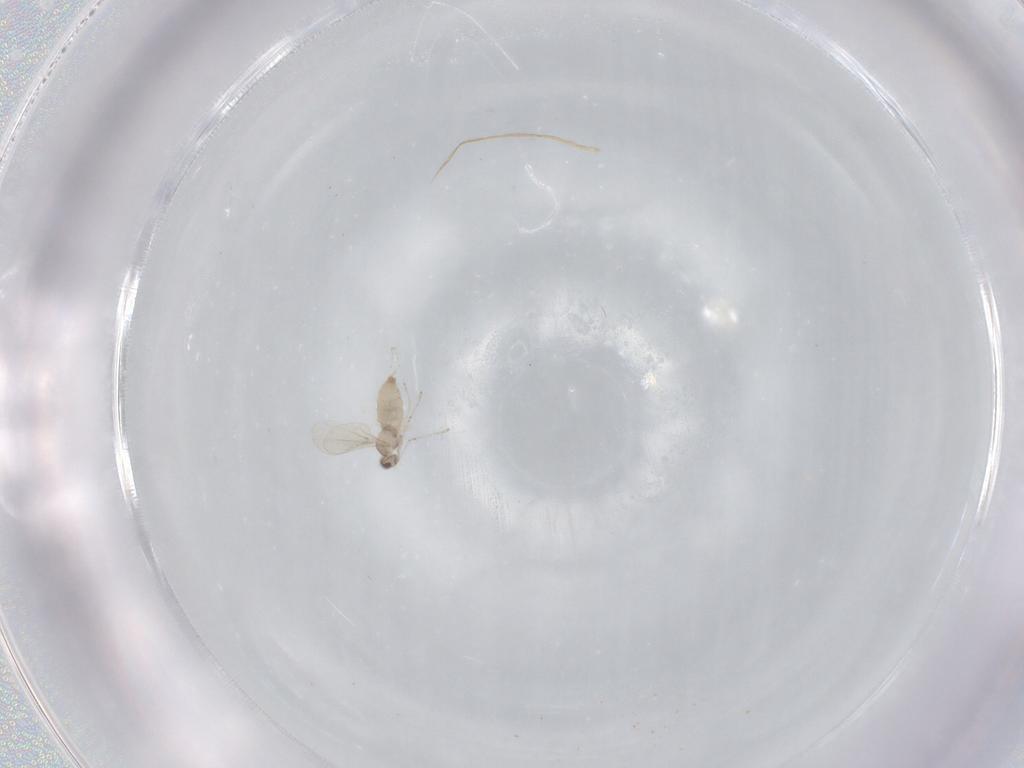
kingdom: Animalia
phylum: Arthropoda
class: Insecta
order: Diptera
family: Cecidomyiidae
